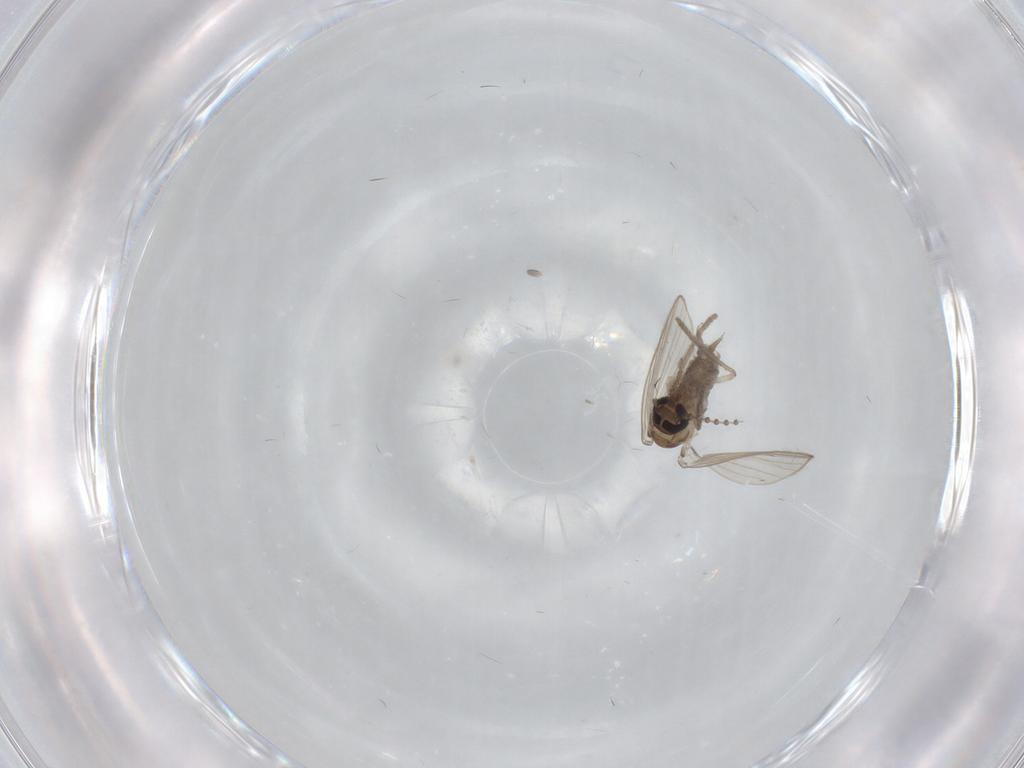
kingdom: Animalia
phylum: Arthropoda
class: Insecta
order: Diptera
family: Psychodidae
